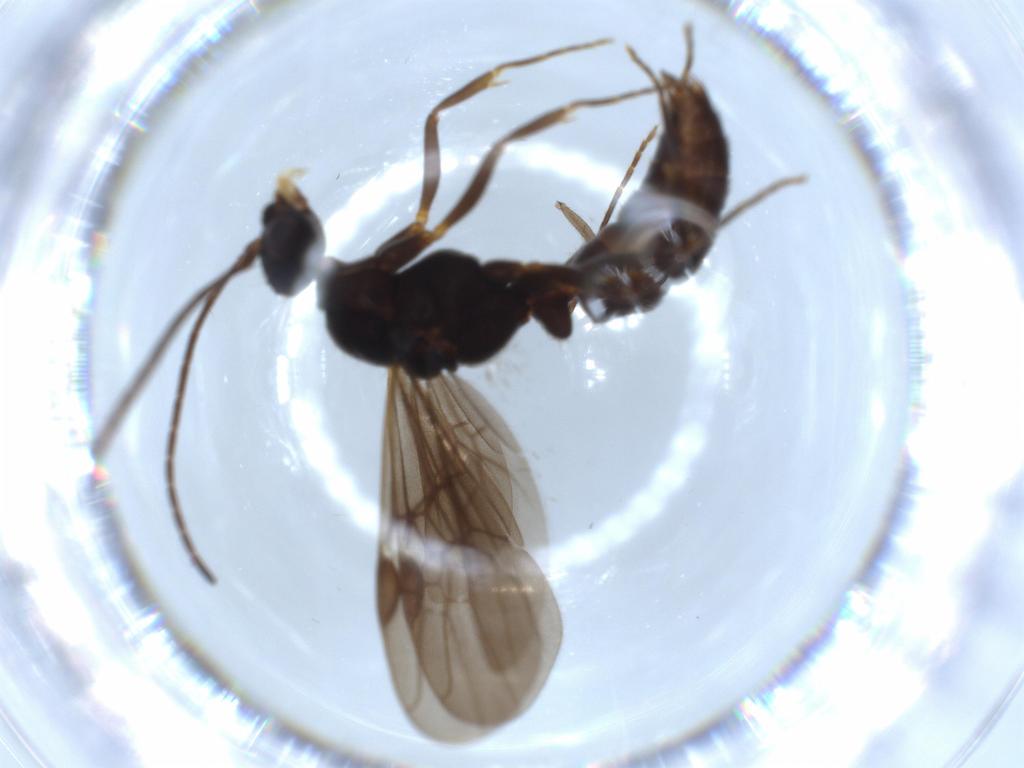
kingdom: Animalia
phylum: Arthropoda
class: Insecta
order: Hymenoptera
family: Formicidae
